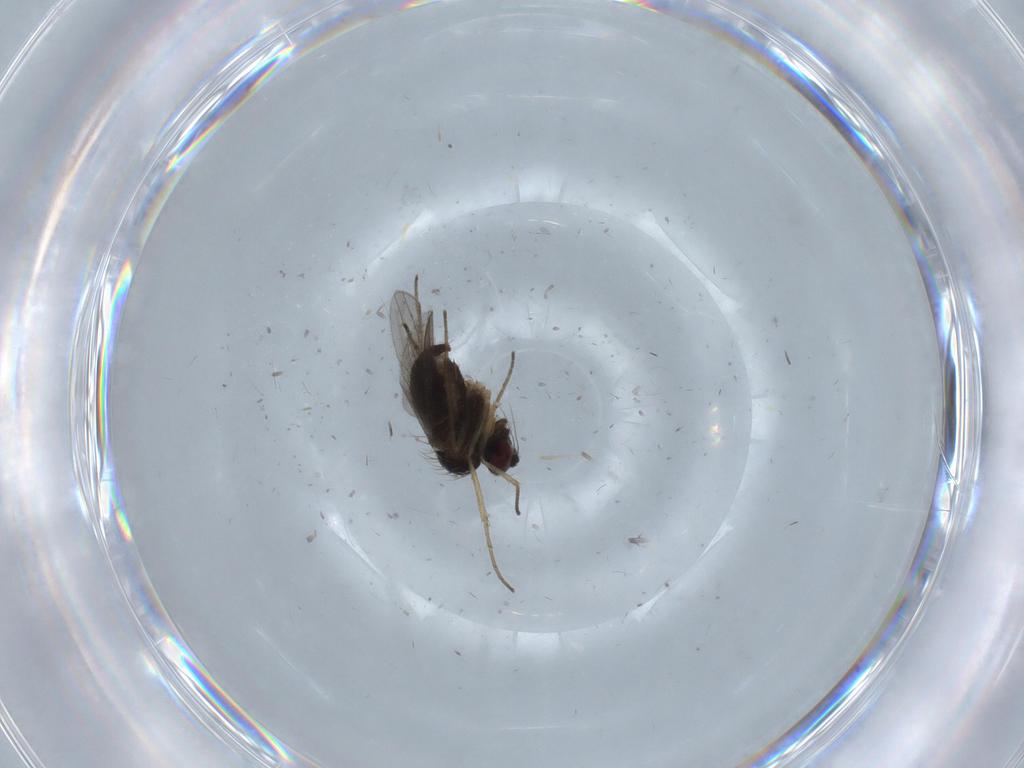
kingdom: Animalia
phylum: Arthropoda
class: Insecta
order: Diptera
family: Dolichopodidae
